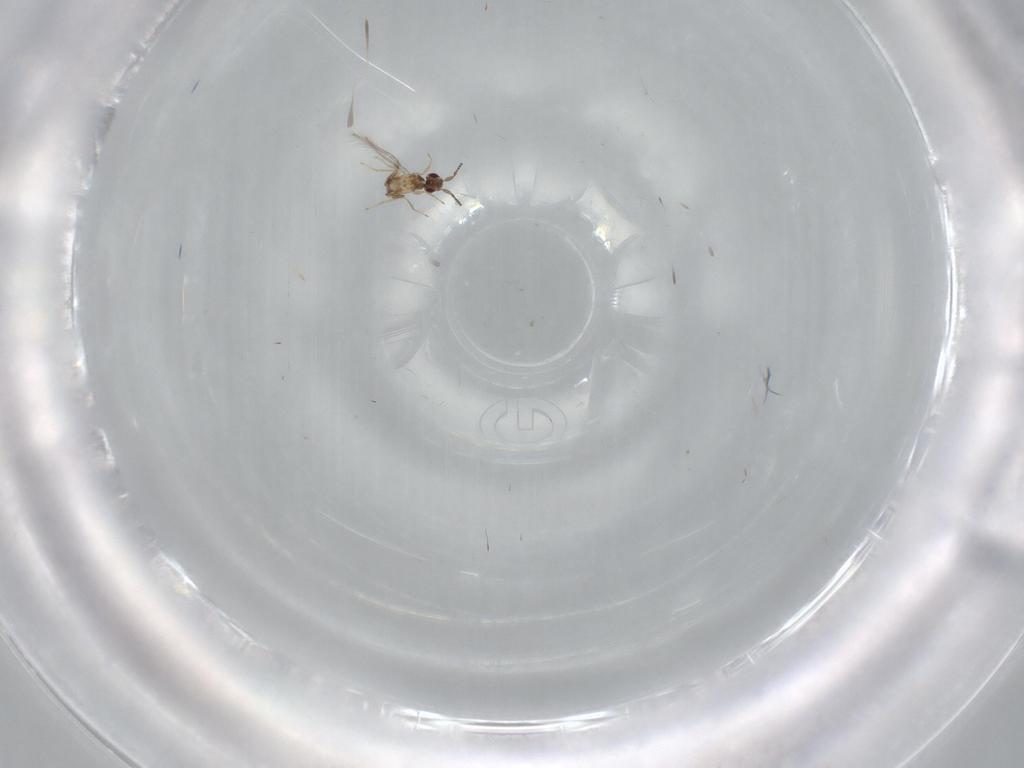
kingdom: Animalia
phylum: Arthropoda
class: Insecta
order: Hymenoptera
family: Mymaridae
